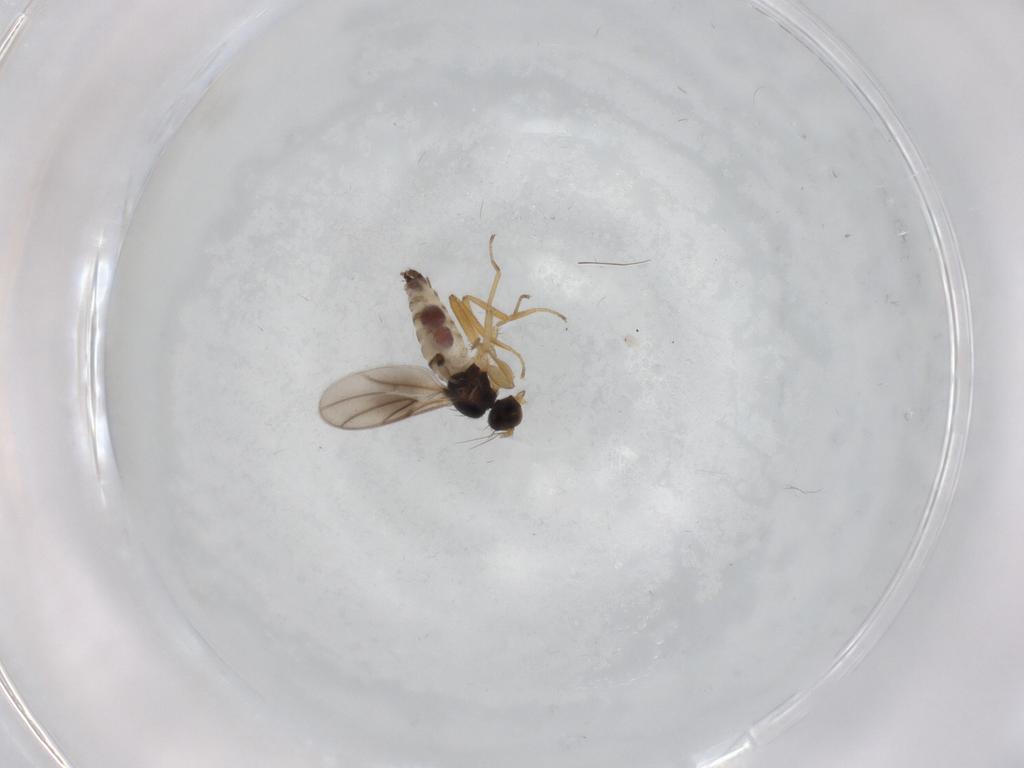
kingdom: Animalia
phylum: Arthropoda
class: Insecta
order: Diptera
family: Hybotidae
